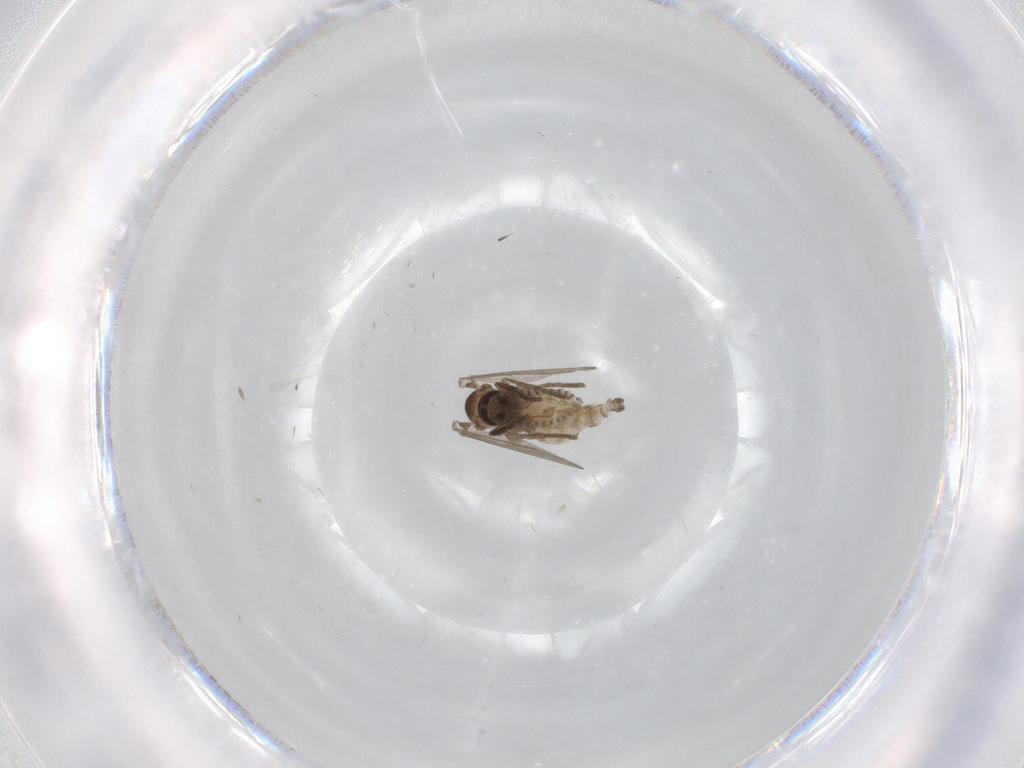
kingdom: Animalia
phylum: Arthropoda
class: Insecta
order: Diptera
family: Psychodidae
